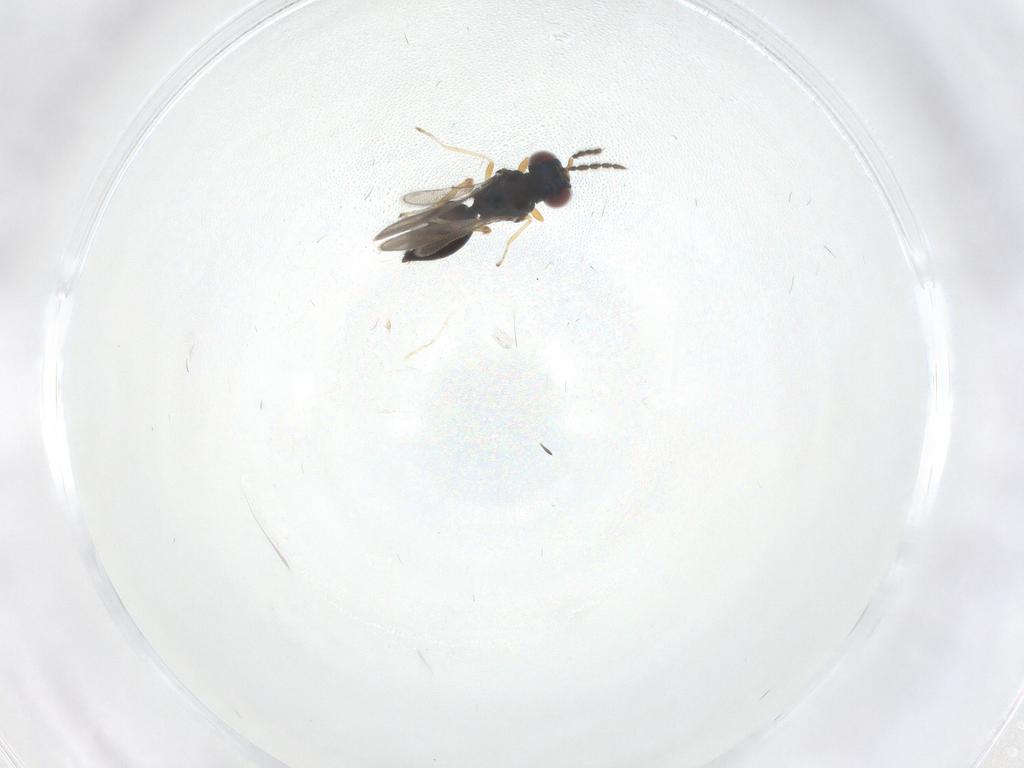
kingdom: Animalia
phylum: Arthropoda
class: Insecta
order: Hymenoptera
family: Eulophidae
